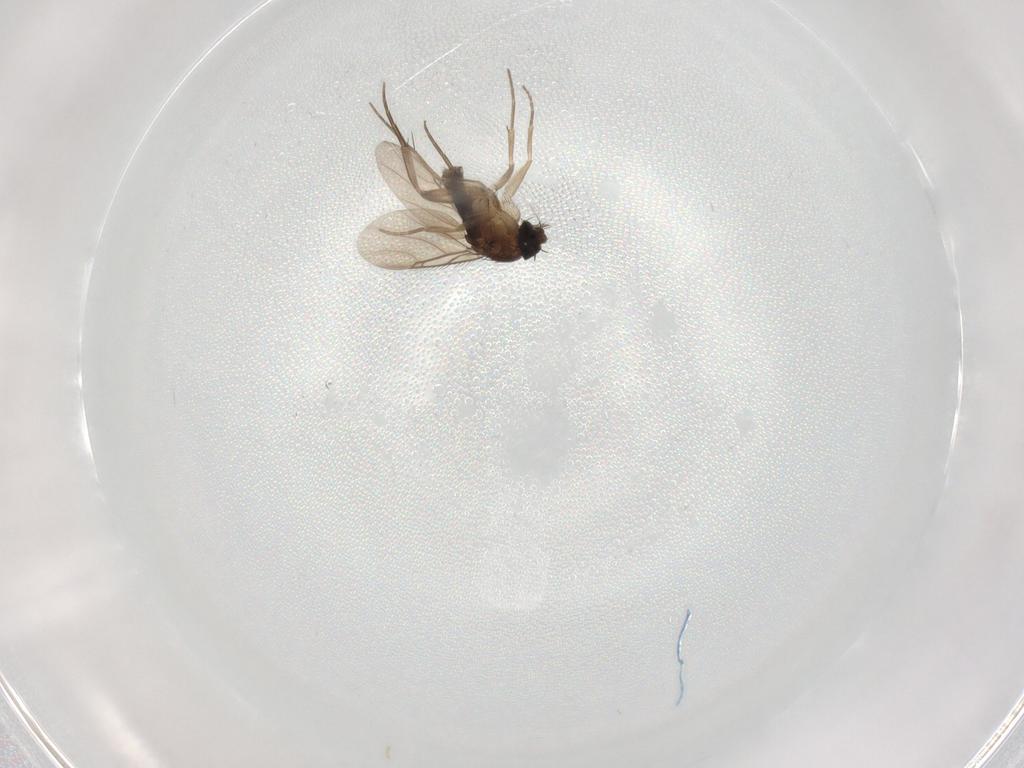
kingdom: Animalia
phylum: Arthropoda
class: Insecta
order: Diptera
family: Phoridae
